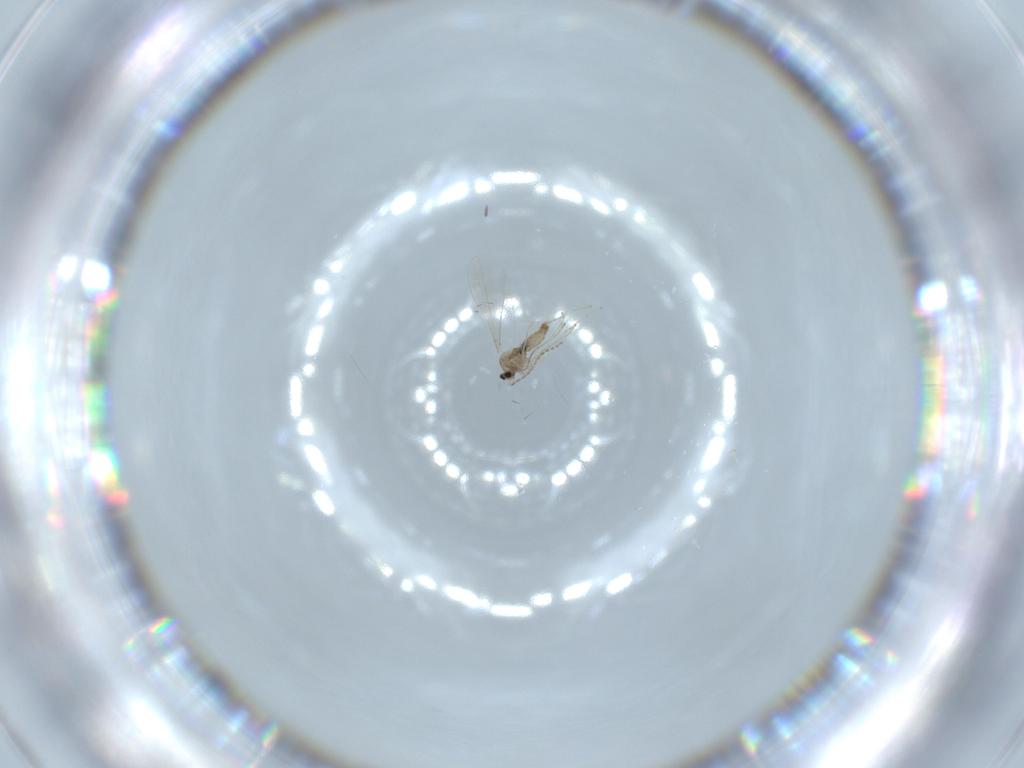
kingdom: Animalia
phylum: Arthropoda
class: Insecta
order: Diptera
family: Cecidomyiidae
